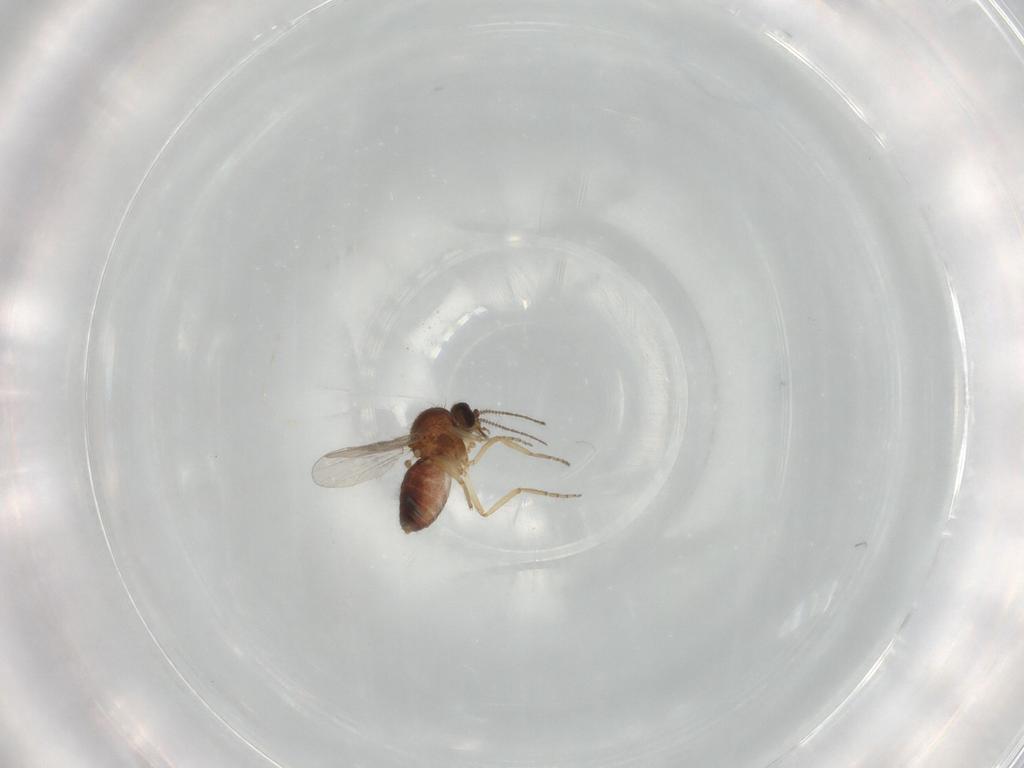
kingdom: Animalia
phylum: Arthropoda
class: Insecta
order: Diptera
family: Ceratopogonidae
